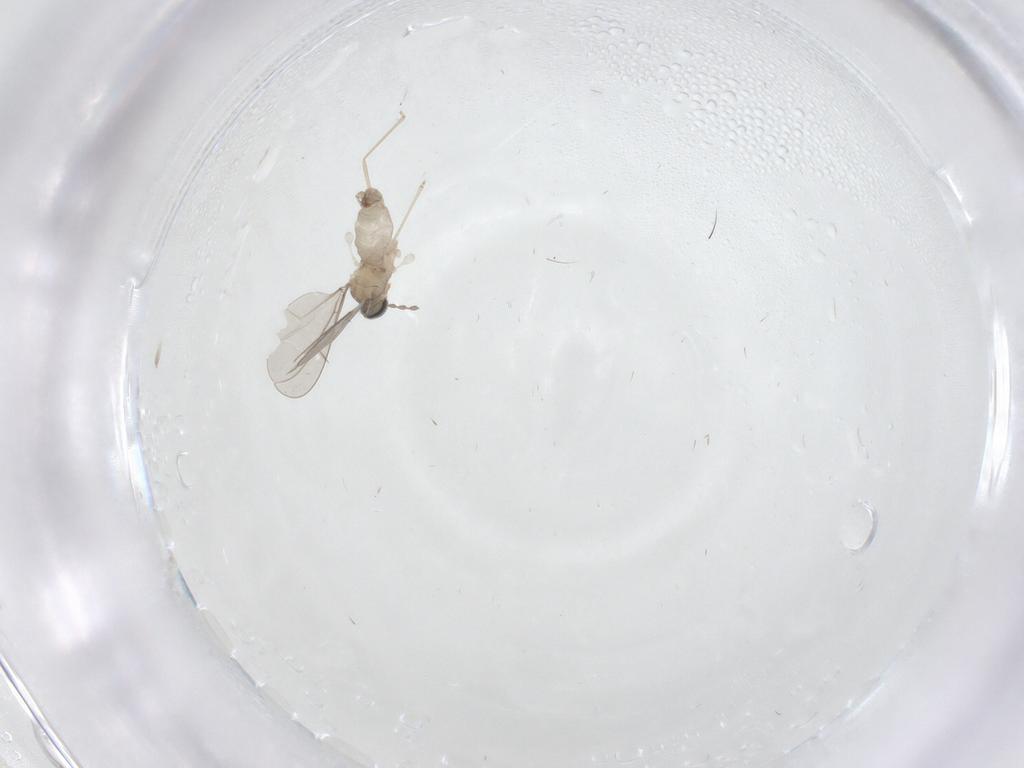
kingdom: Animalia
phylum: Arthropoda
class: Insecta
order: Diptera
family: Cecidomyiidae
